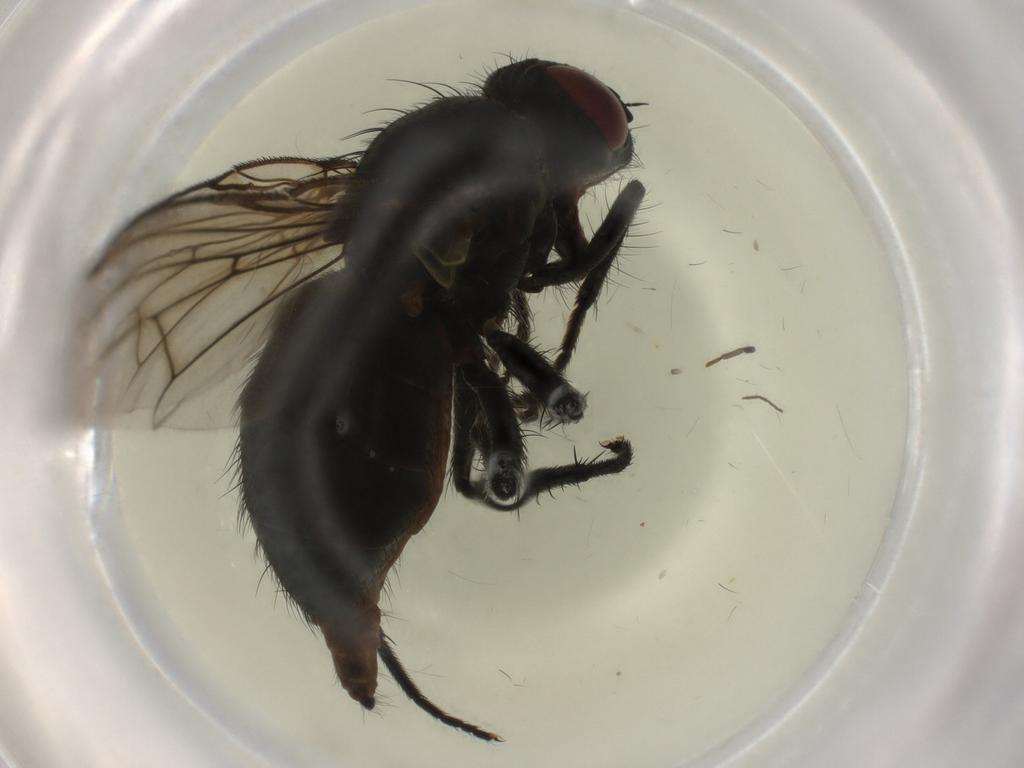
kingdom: Animalia
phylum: Arthropoda
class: Insecta
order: Diptera
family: Muscidae
